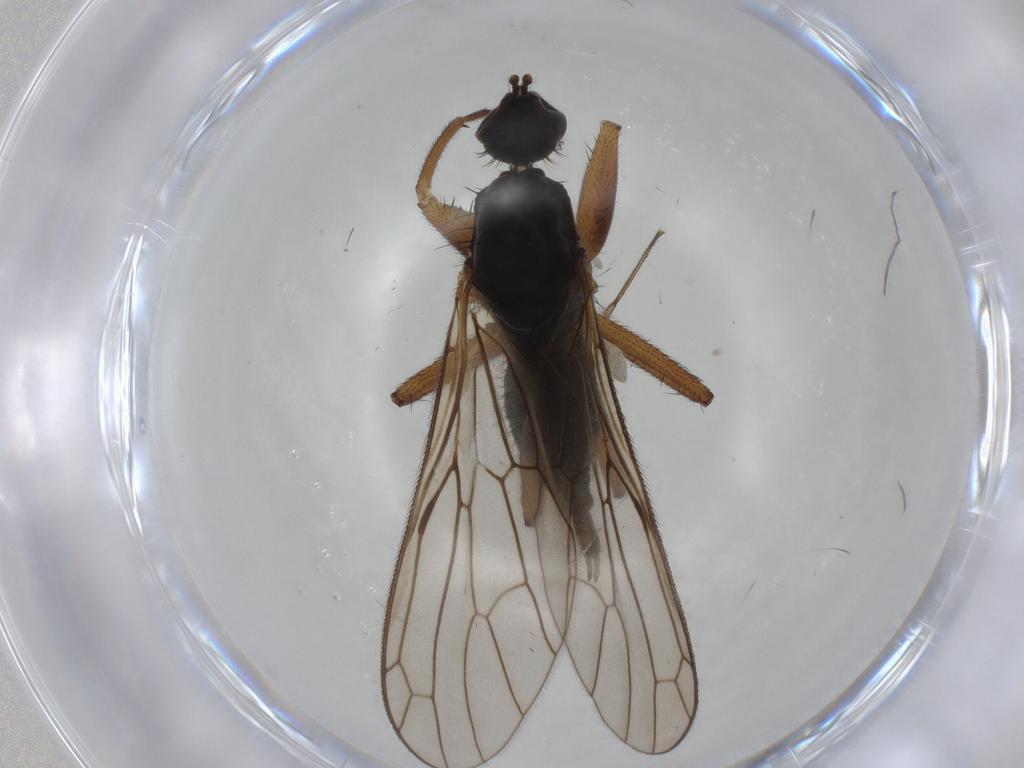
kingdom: Animalia
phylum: Arthropoda
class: Insecta
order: Diptera
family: Empididae
